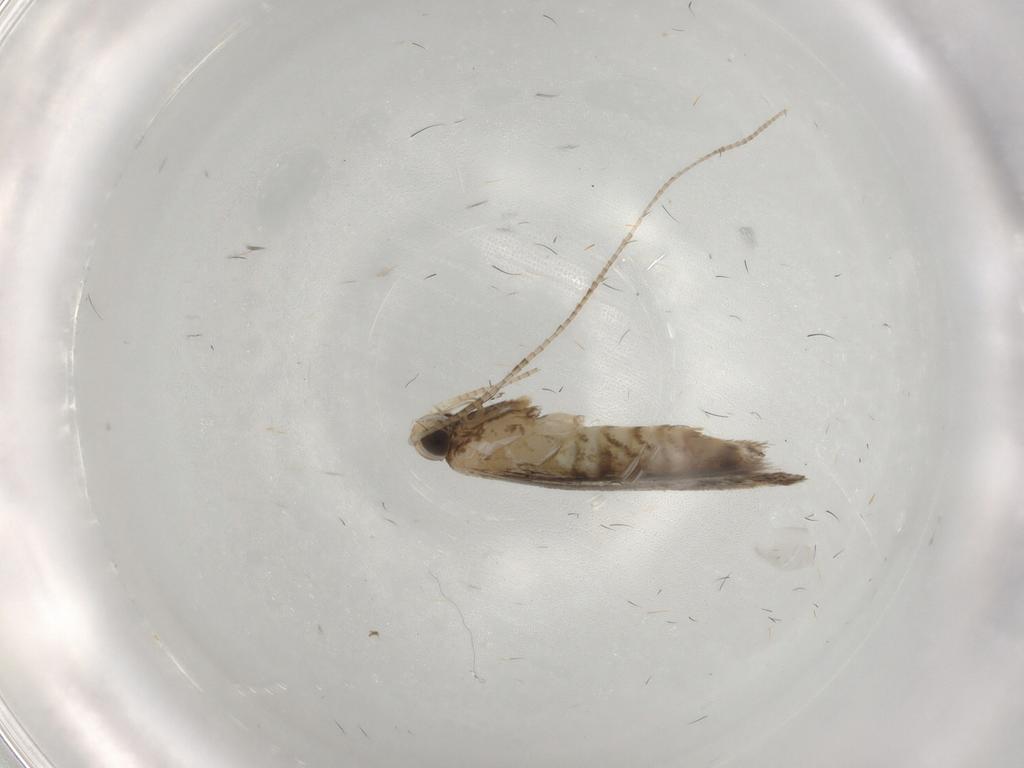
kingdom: Animalia
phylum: Arthropoda
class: Insecta
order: Lepidoptera
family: Gracillariidae
